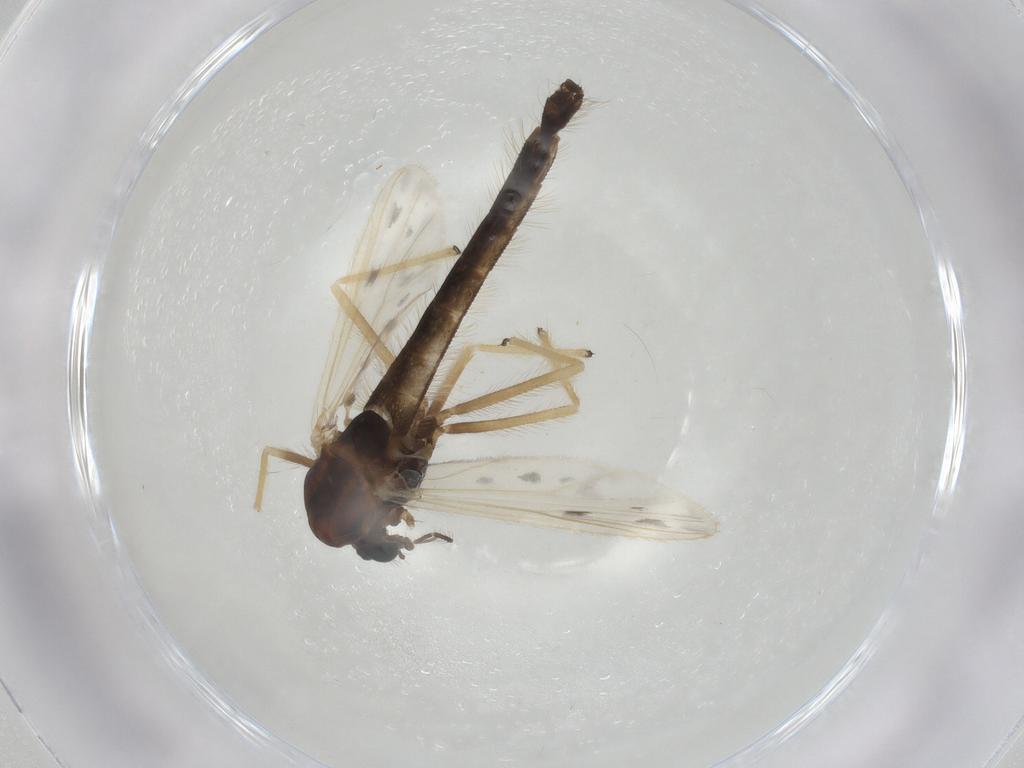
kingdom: Animalia
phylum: Arthropoda
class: Insecta
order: Diptera
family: Chironomidae
